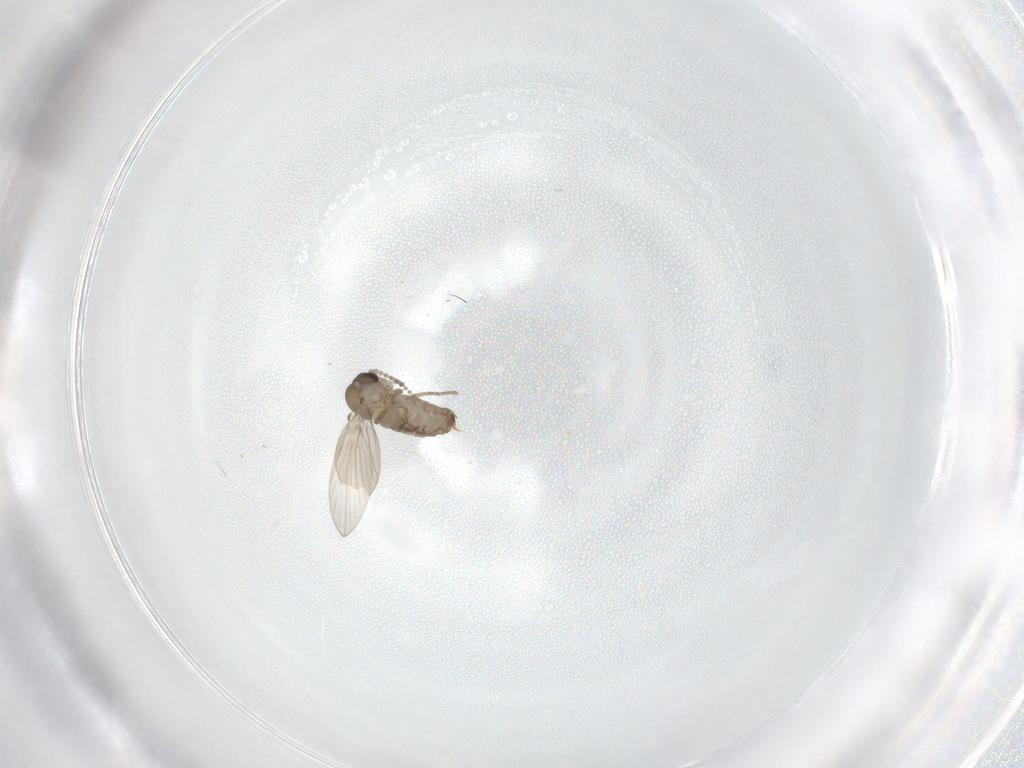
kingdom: Animalia
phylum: Arthropoda
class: Insecta
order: Diptera
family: Psychodidae
